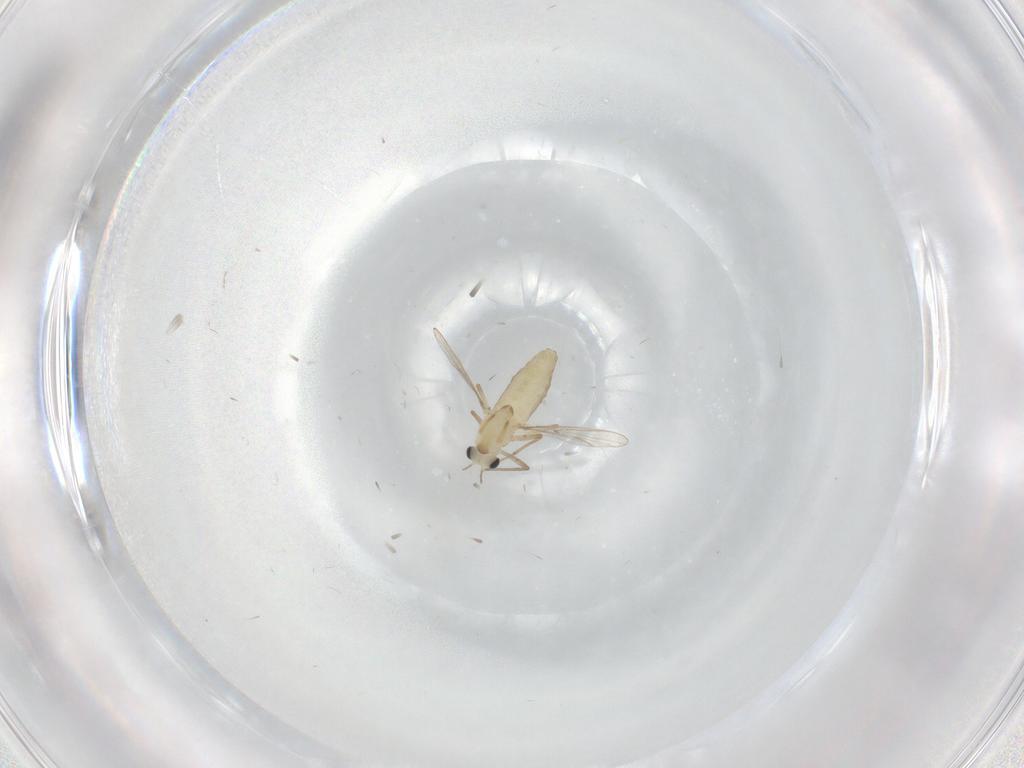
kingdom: Animalia
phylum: Arthropoda
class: Insecta
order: Diptera
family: Chironomidae
